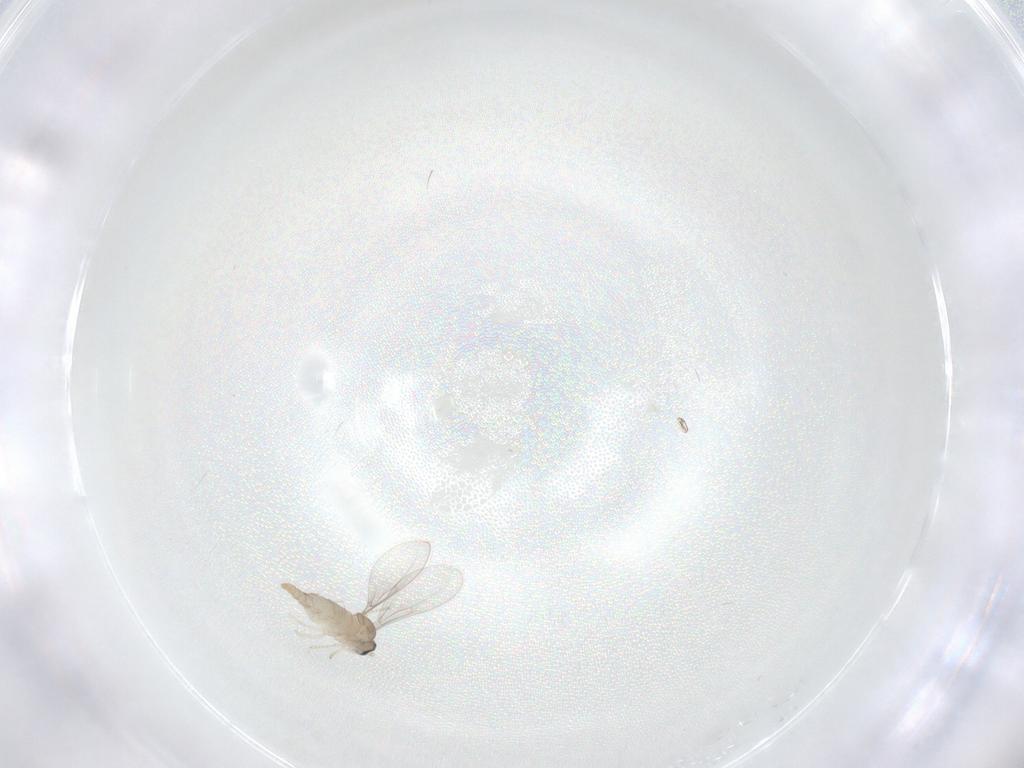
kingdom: Animalia
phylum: Arthropoda
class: Insecta
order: Diptera
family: Cecidomyiidae
